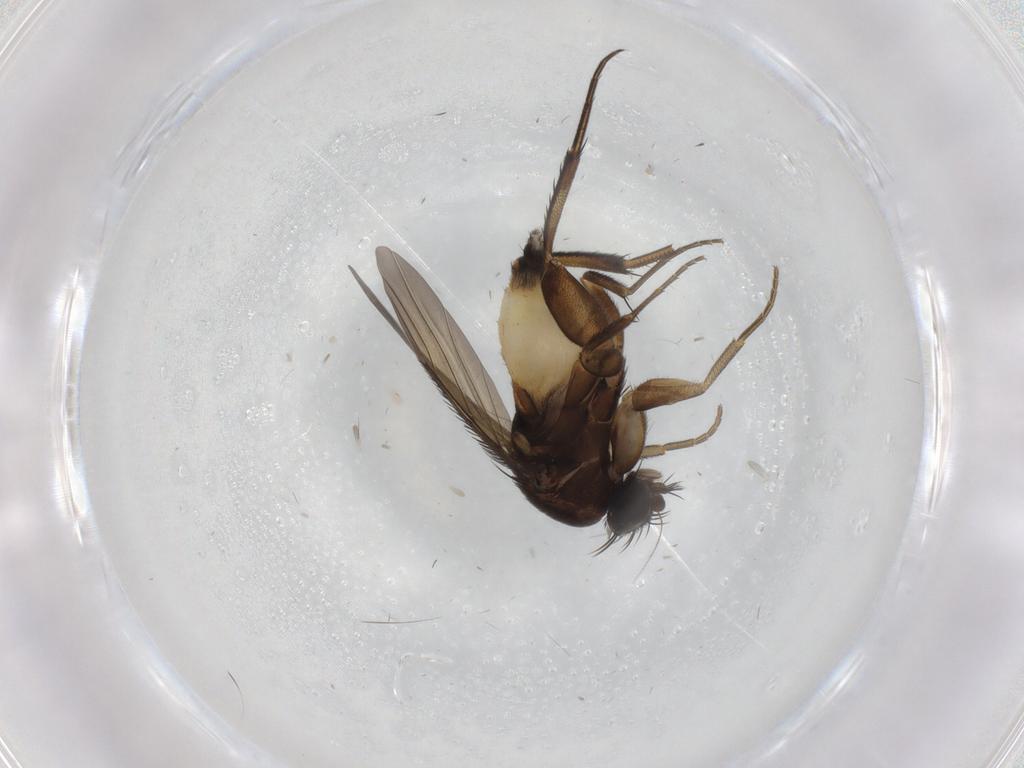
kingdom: Animalia
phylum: Arthropoda
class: Insecta
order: Diptera
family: Phoridae
